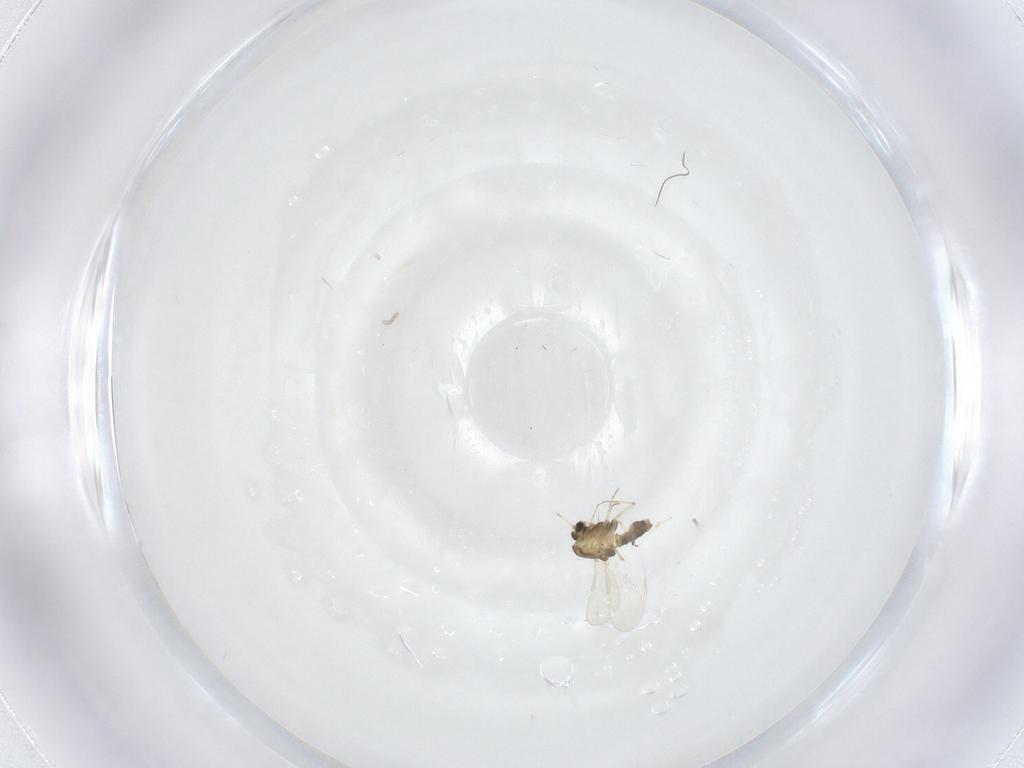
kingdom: Animalia
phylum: Arthropoda
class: Insecta
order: Diptera
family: Chironomidae
